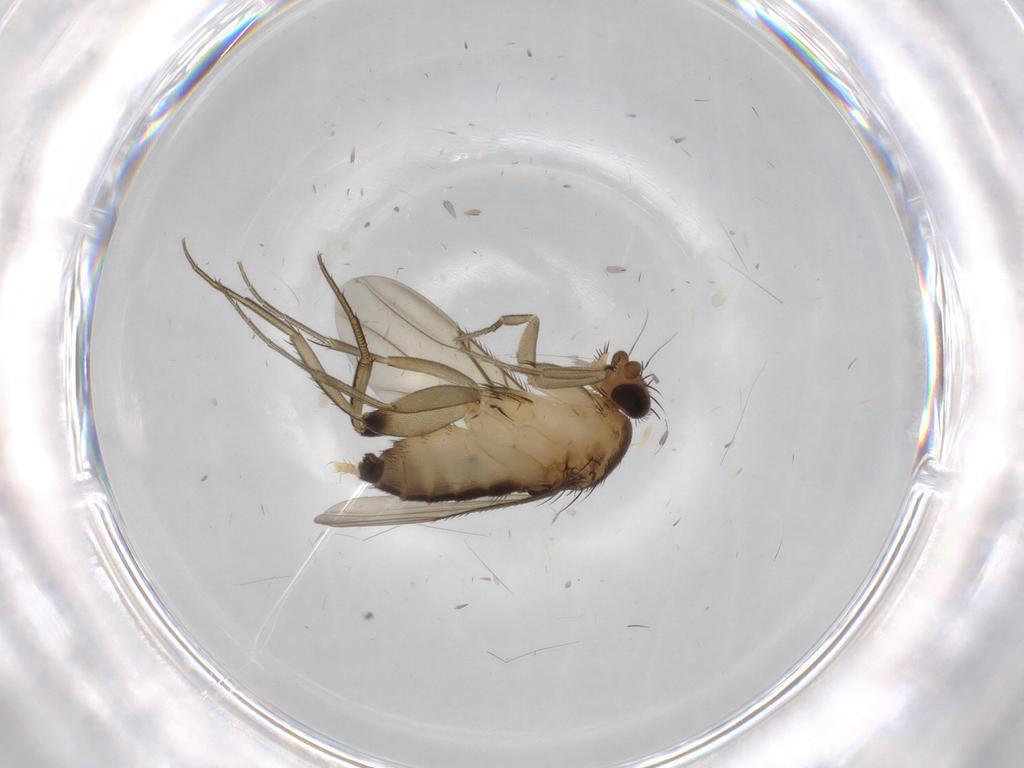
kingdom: Animalia
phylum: Arthropoda
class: Insecta
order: Diptera
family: Phoridae
